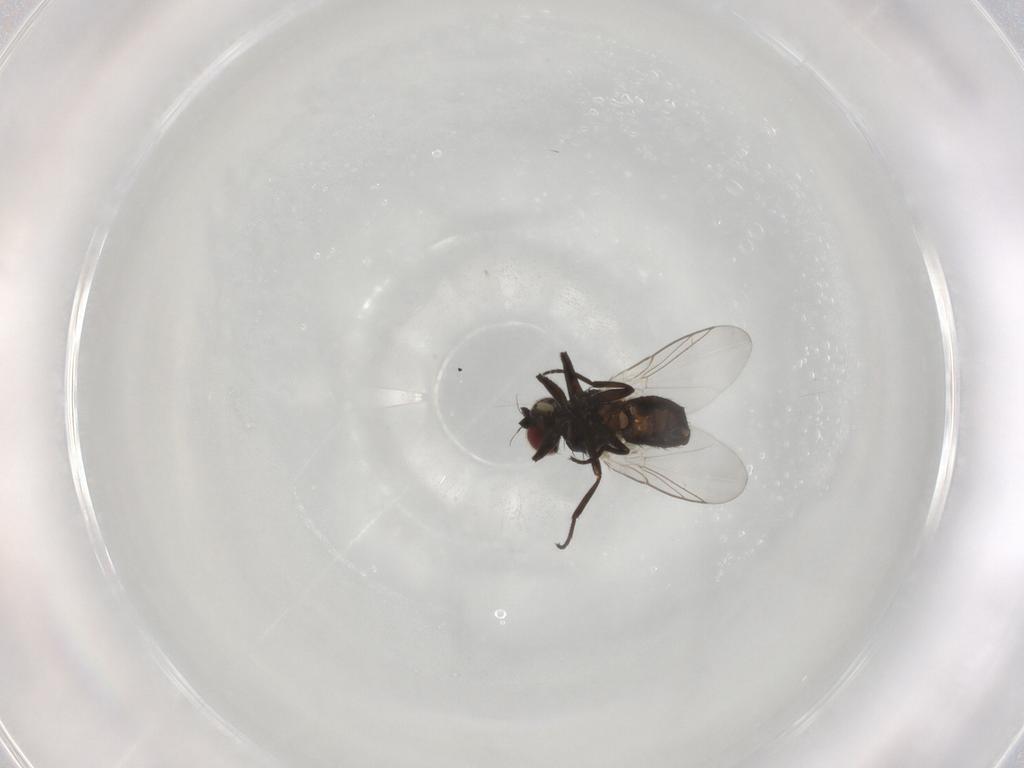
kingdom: Animalia
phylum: Arthropoda
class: Insecta
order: Diptera
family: Agromyzidae
